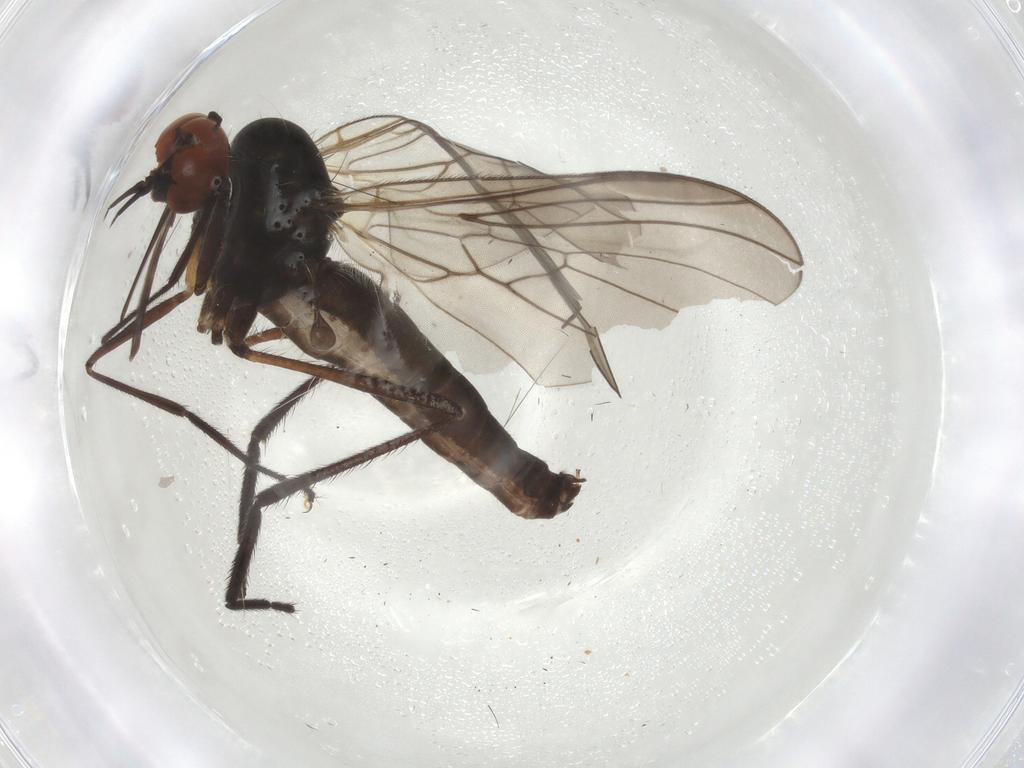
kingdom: Animalia
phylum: Arthropoda
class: Insecta
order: Diptera
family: Empididae
